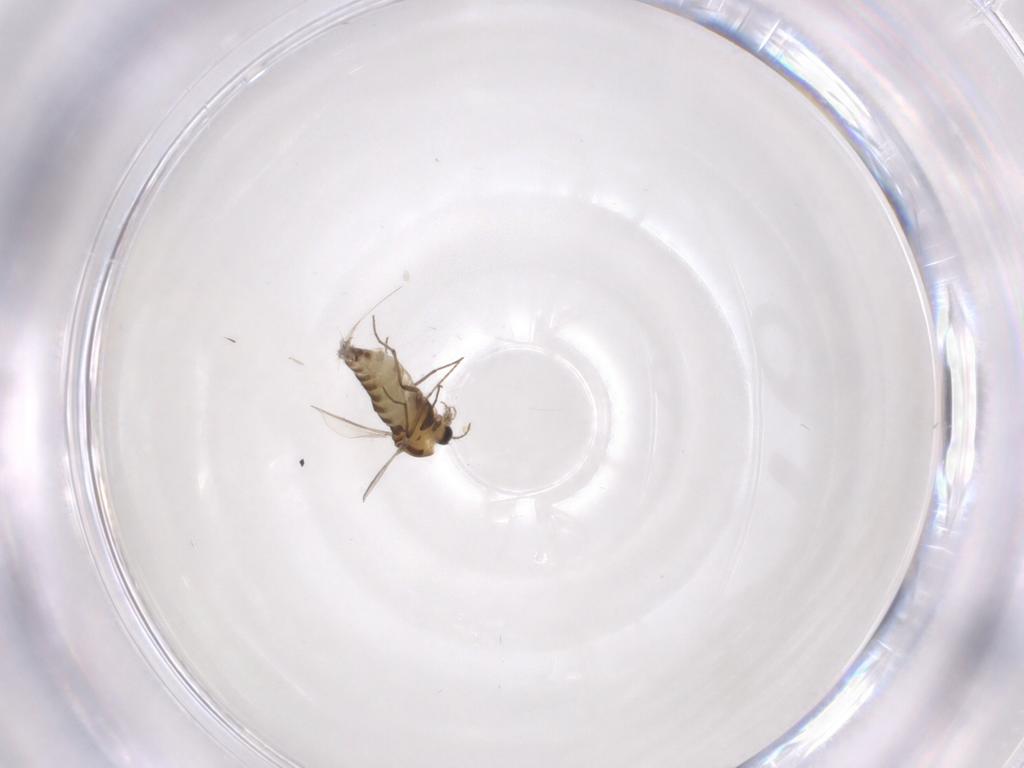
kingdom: Animalia
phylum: Arthropoda
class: Insecta
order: Diptera
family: Chironomidae
